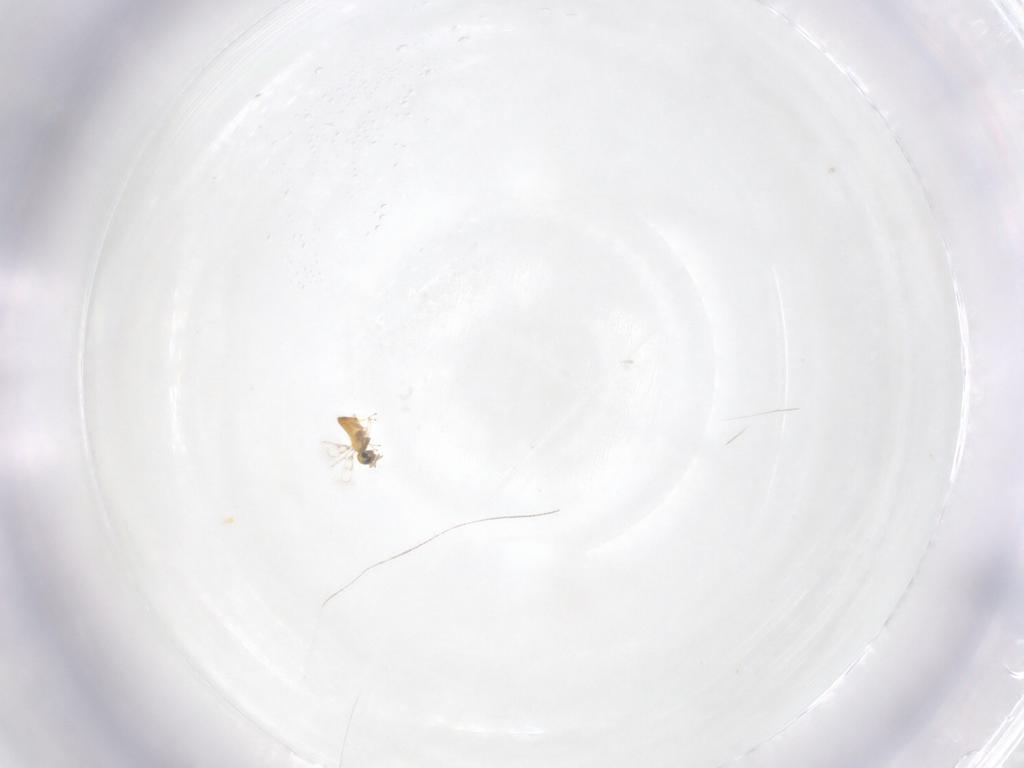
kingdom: Animalia
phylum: Arthropoda
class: Insecta
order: Hymenoptera
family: Trichogrammatidae
